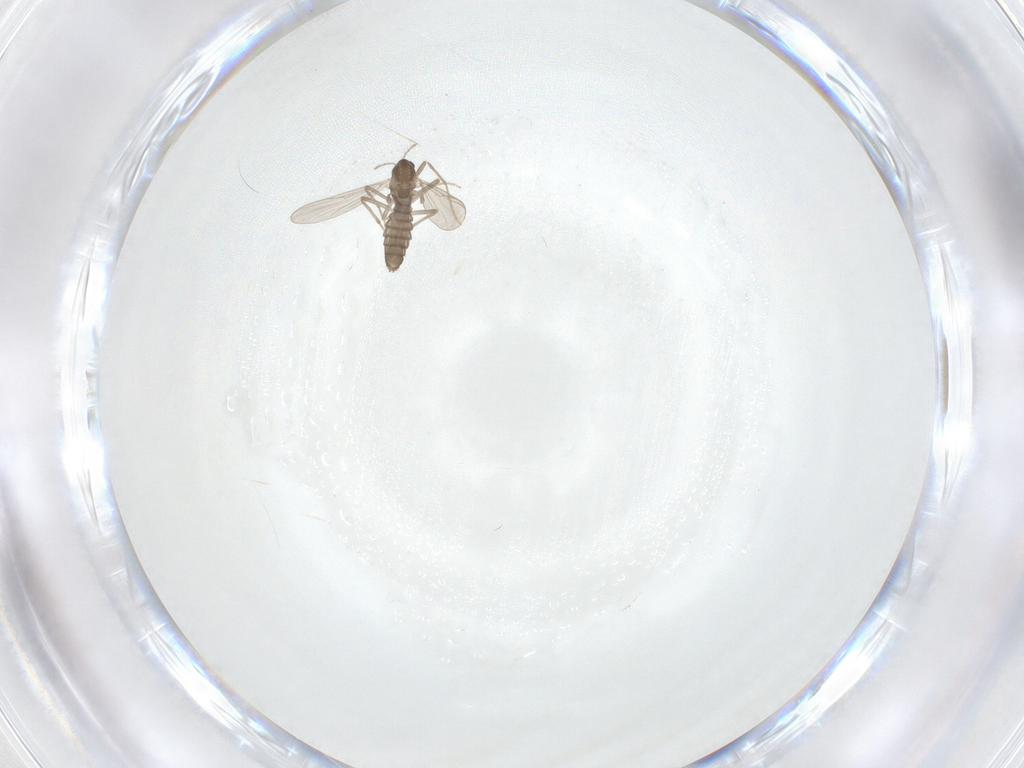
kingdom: Animalia
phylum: Arthropoda
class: Insecta
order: Diptera
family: Chironomidae
